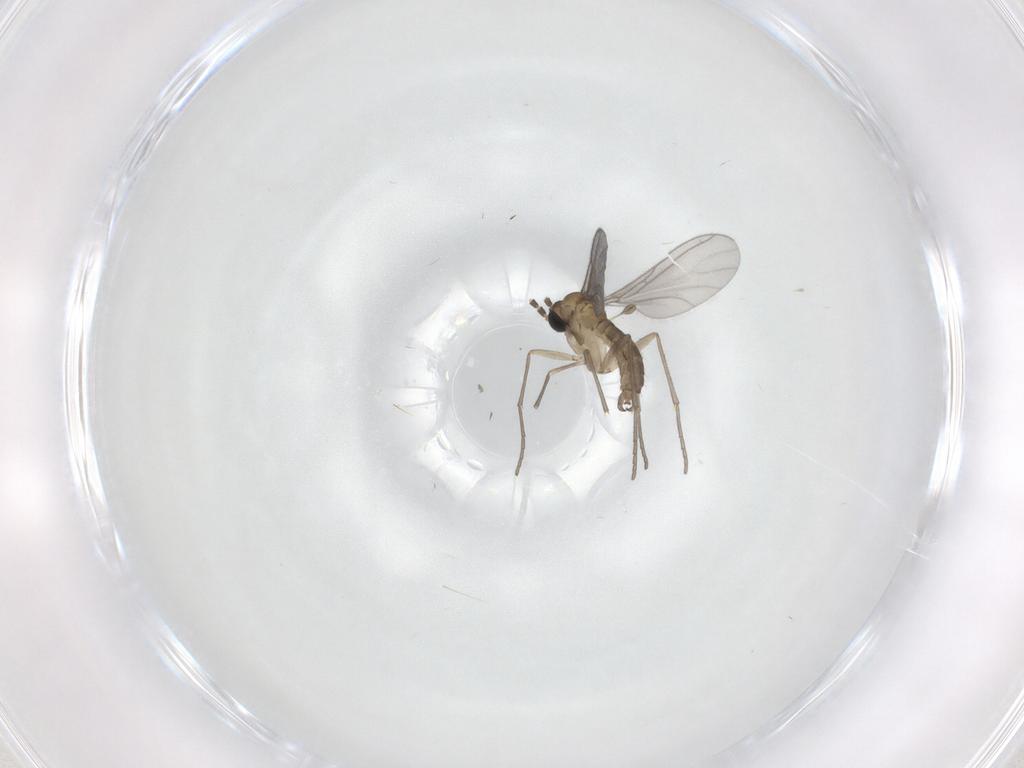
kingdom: Animalia
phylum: Arthropoda
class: Insecta
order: Diptera
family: Sciaridae
